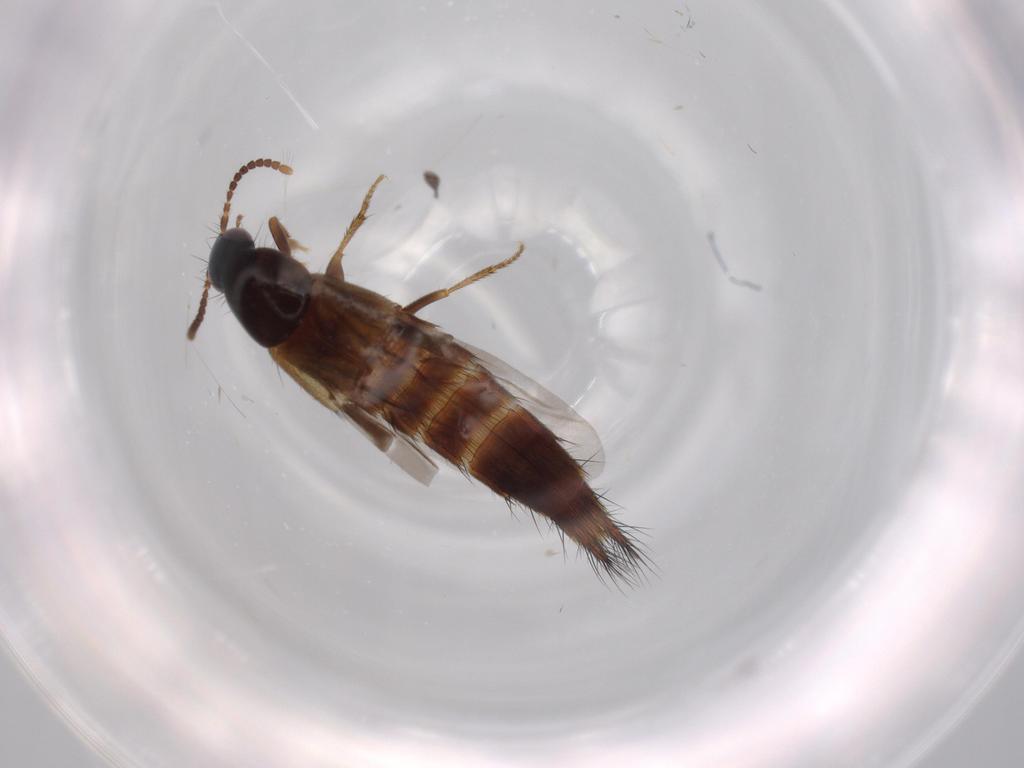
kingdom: Animalia
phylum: Arthropoda
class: Insecta
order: Coleoptera
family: Staphylinidae
